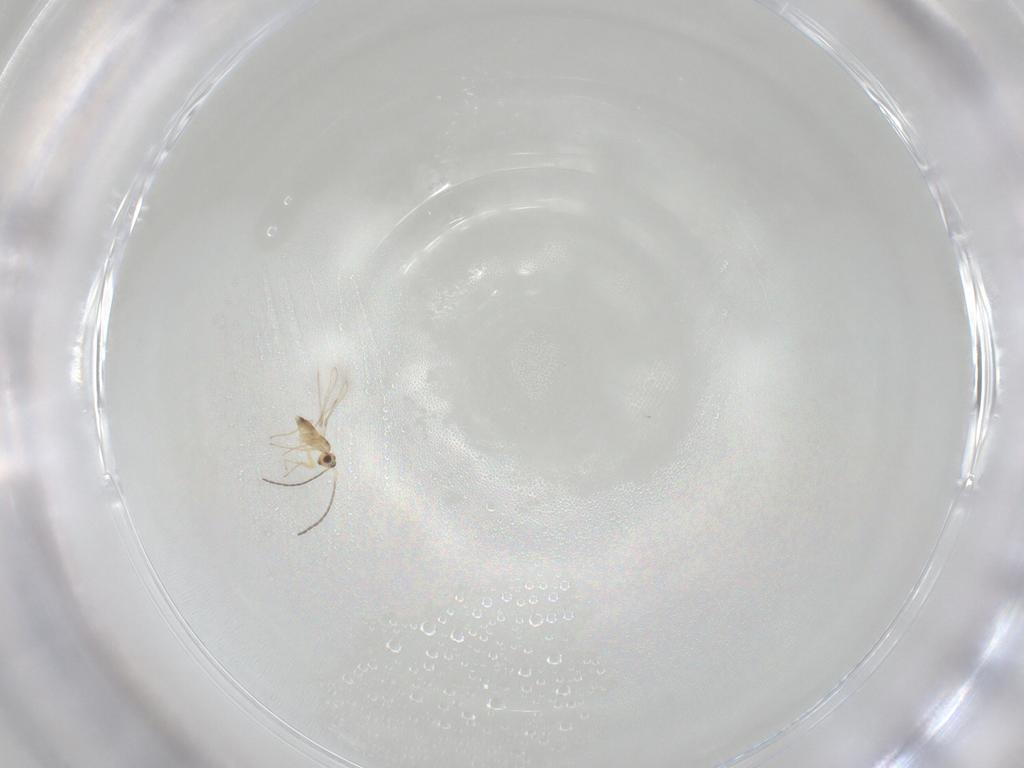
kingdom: Animalia
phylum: Arthropoda
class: Insecta
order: Hymenoptera
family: Mymaridae
